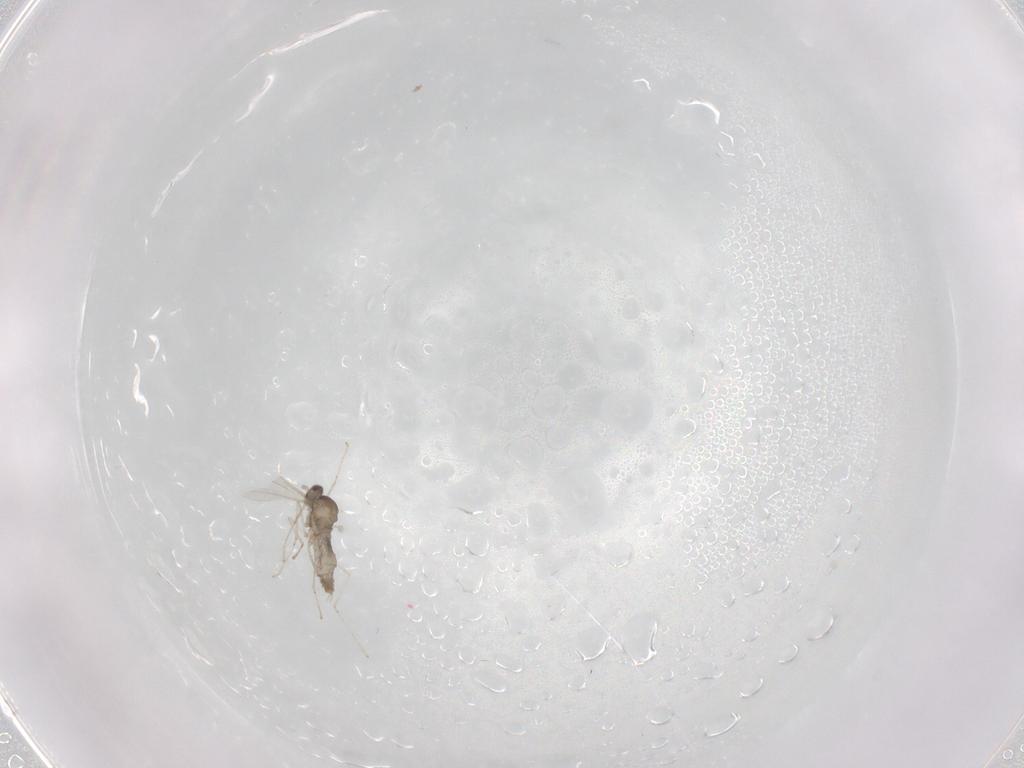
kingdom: Animalia
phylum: Arthropoda
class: Insecta
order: Diptera
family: Cecidomyiidae
